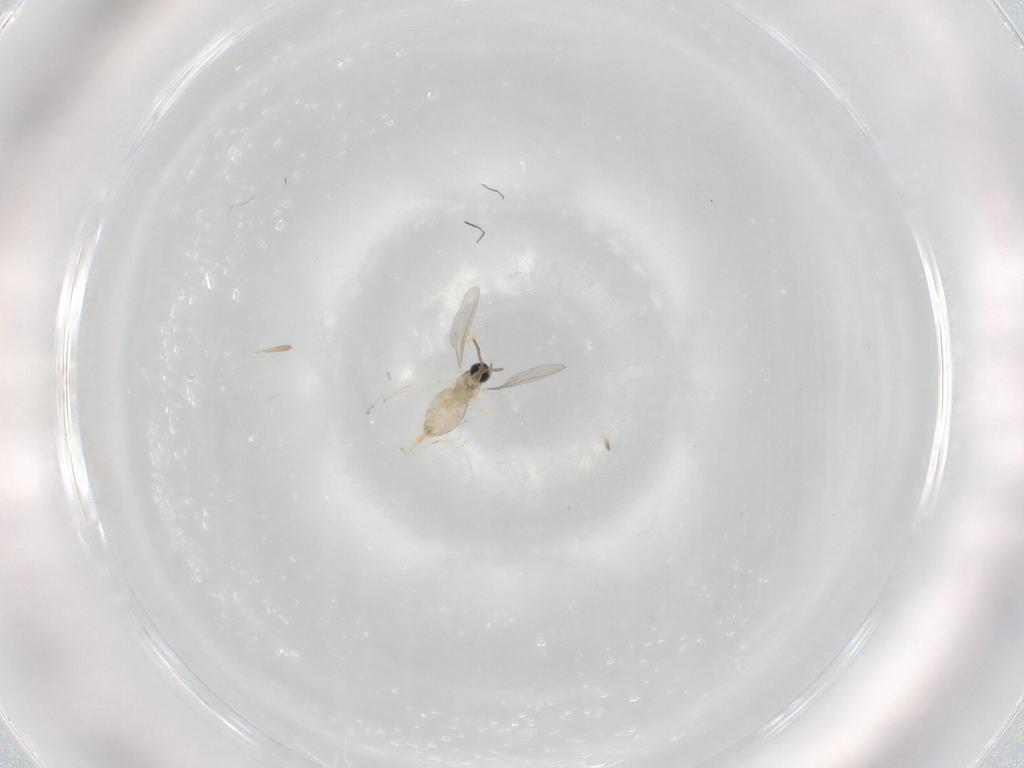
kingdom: Animalia
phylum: Arthropoda
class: Insecta
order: Diptera
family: Cecidomyiidae
